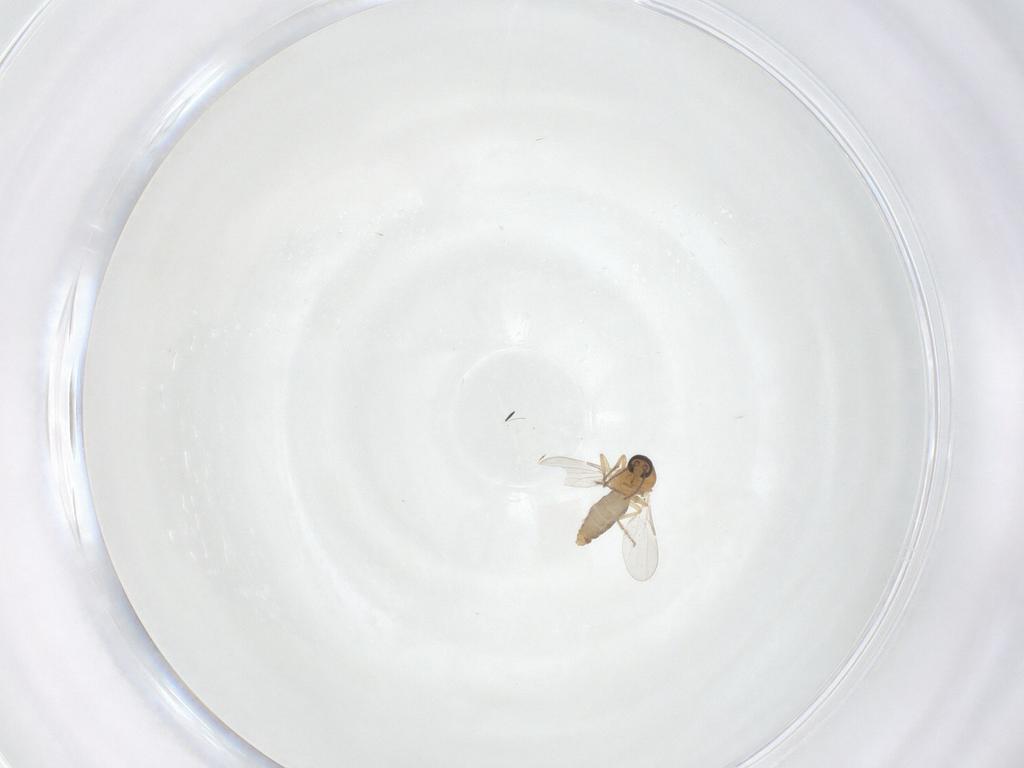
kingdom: Animalia
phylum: Arthropoda
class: Insecta
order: Diptera
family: Ceratopogonidae
